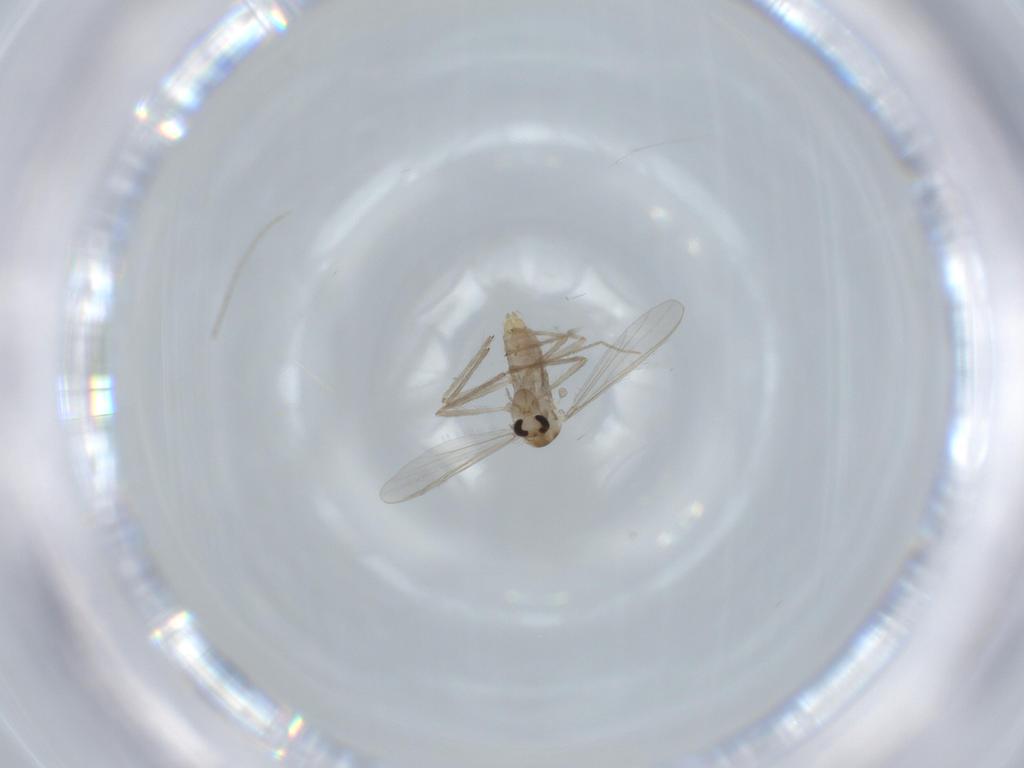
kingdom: Animalia
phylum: Arthropoda
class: Insecta
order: Diptera
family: Chironomidae
